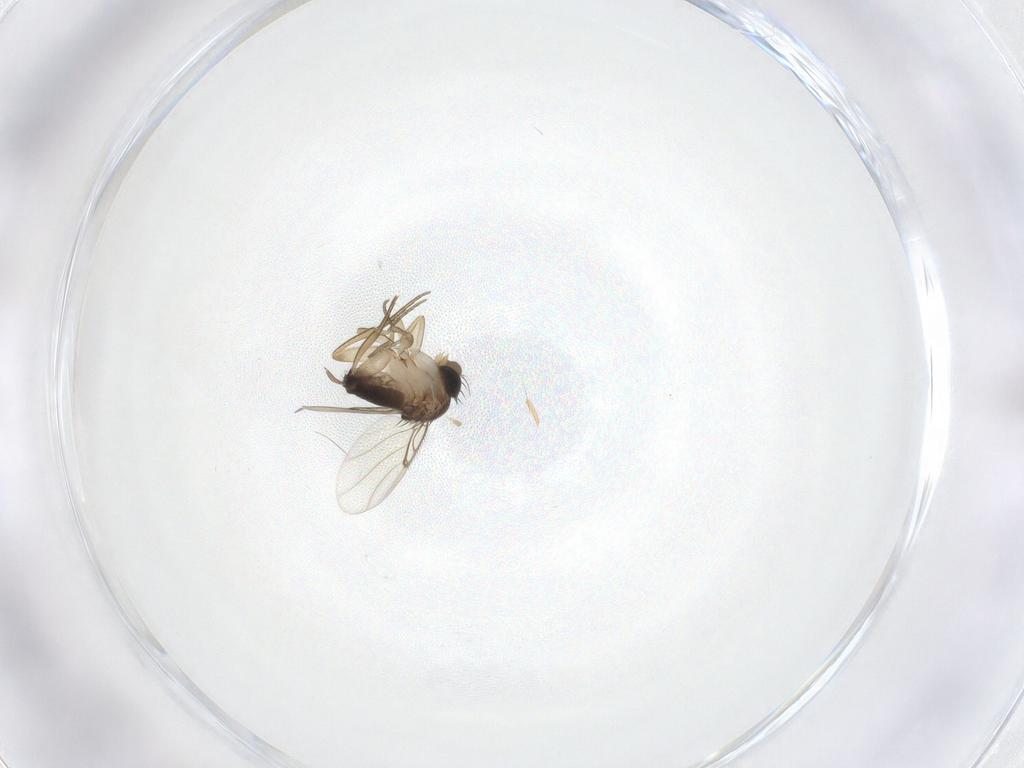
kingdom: Animalia
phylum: Arthropoda
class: Insecta
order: Diptera
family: Phoridae
